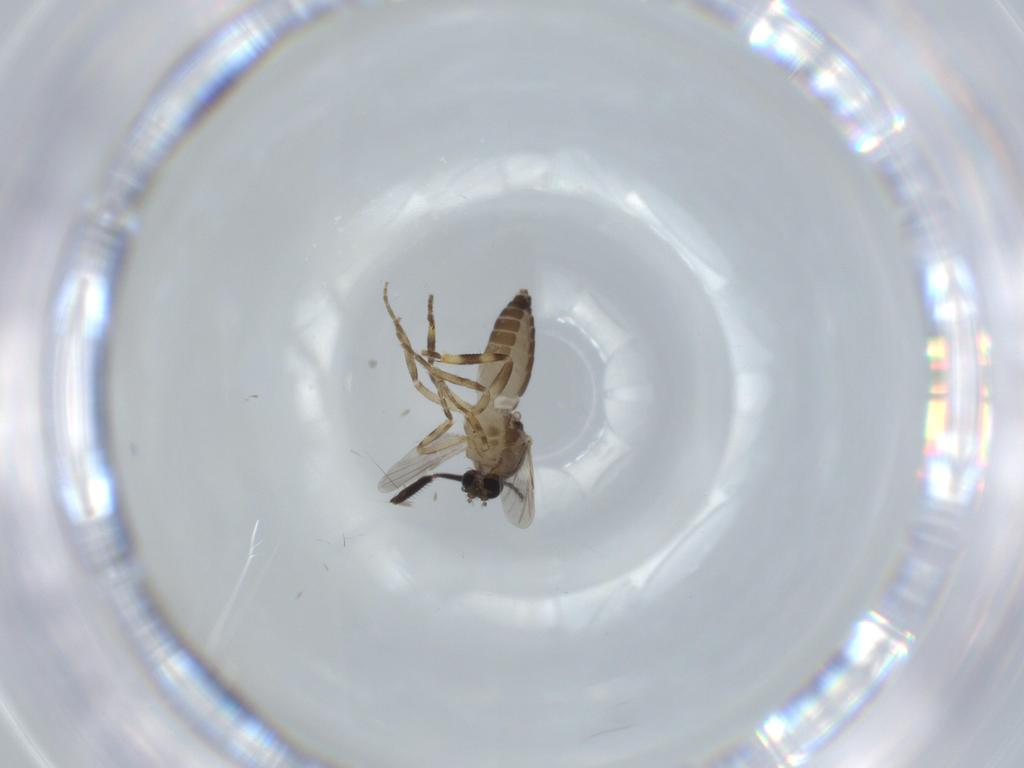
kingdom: Animalia
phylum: Arthropoda
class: Insecta
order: Diptera
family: Ceratopogonidae
